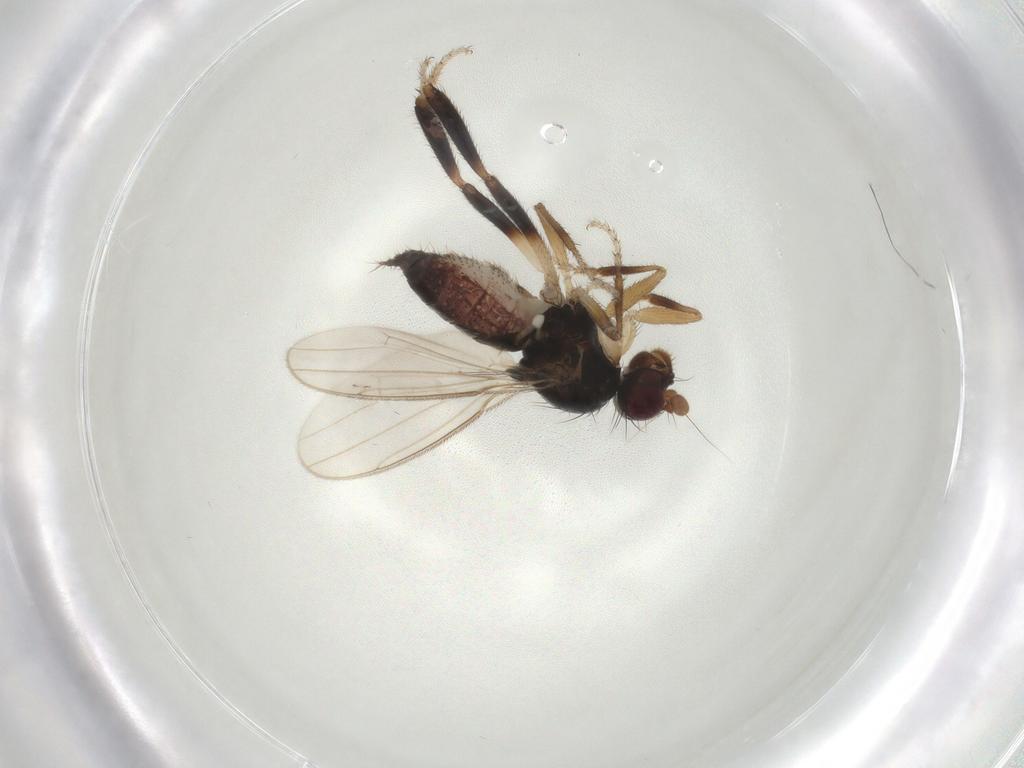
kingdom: Animalia
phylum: Arthropoda
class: Insecta
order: Diptera
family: Sphaeroceridae
